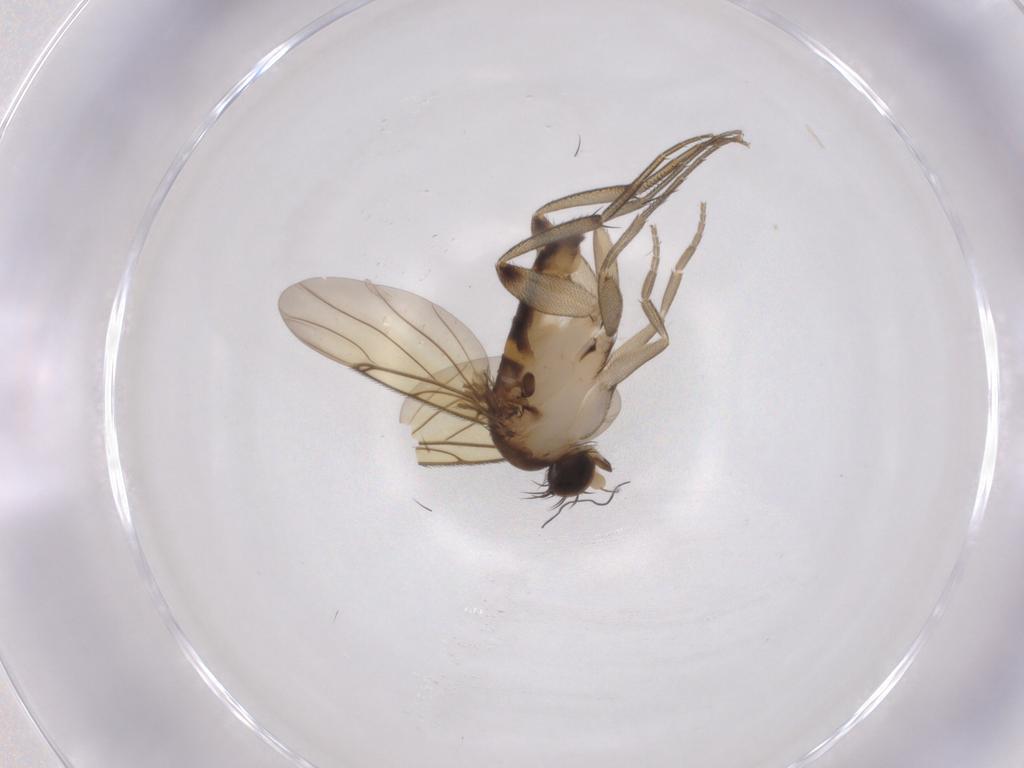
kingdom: Animalia
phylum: Arthropoda
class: Insecta
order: Diptera
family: Phoridae
